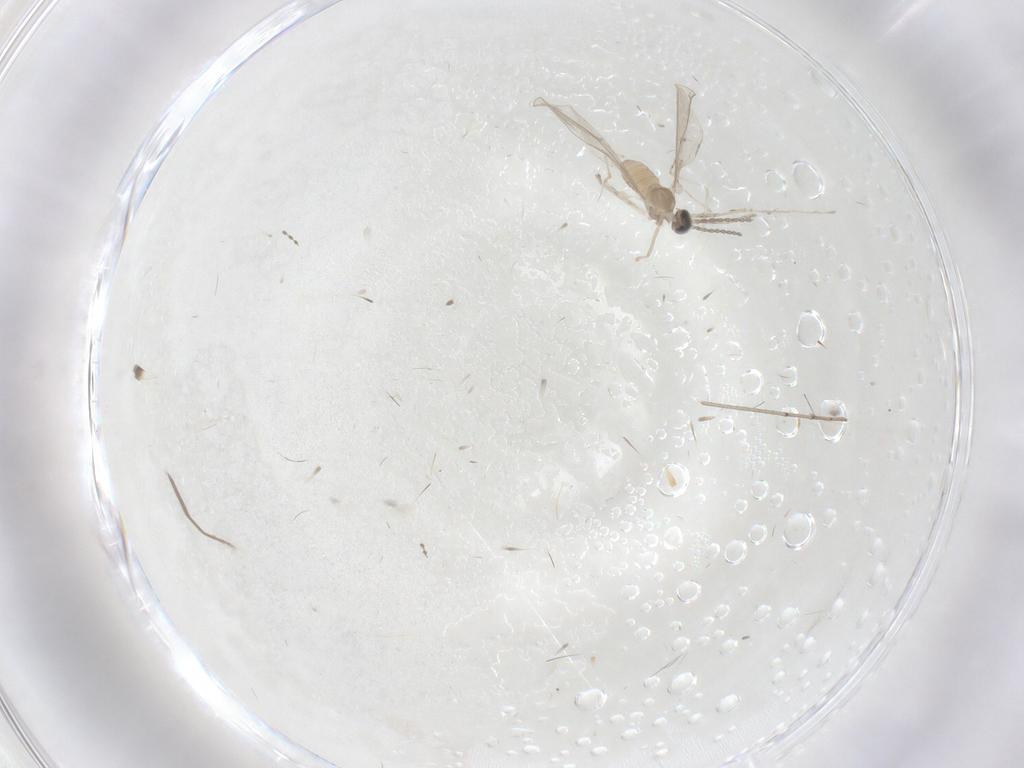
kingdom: Animalia
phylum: Arthropoda
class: Insecta
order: Diptera
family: Cecidomyiidae
